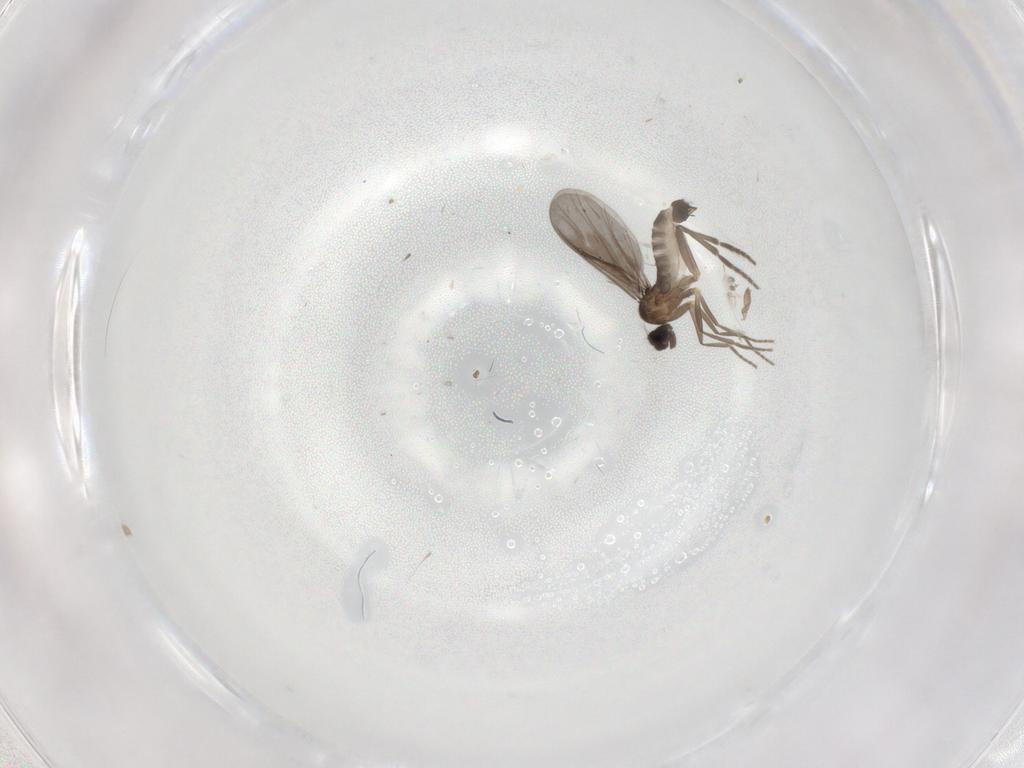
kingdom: Animalia
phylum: Arthropoda
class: Insecta
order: Diptera
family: Phoridae
